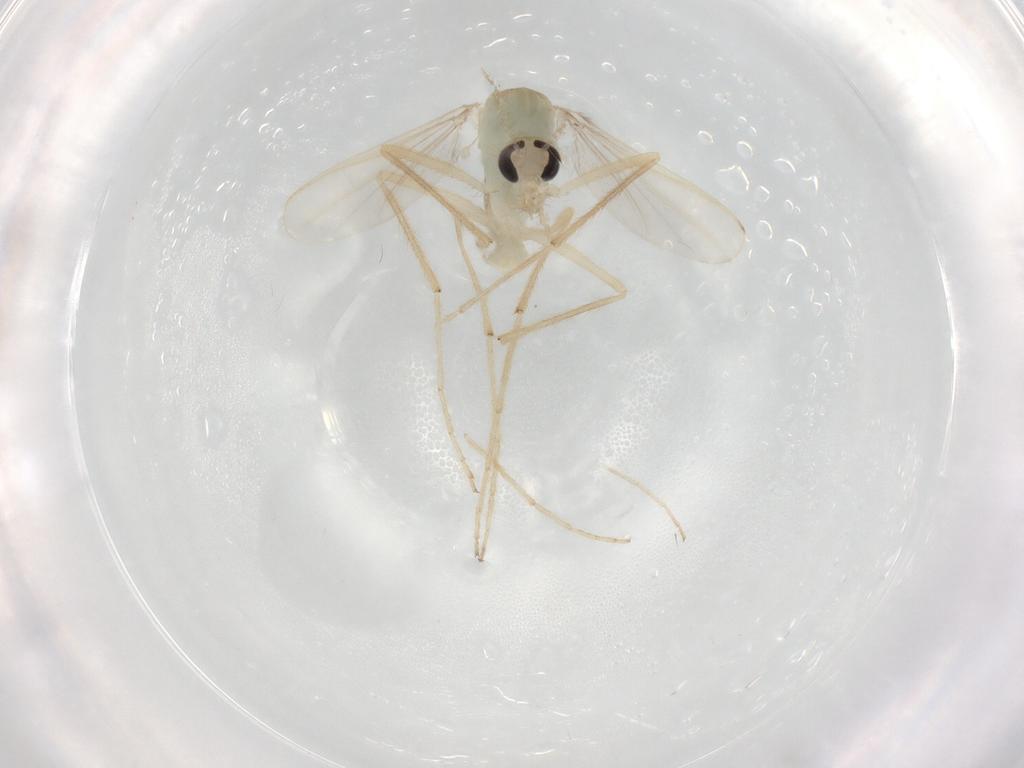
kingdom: Animalia
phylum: Arthropoda
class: Insecta
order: Diptera
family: Chironomidae
